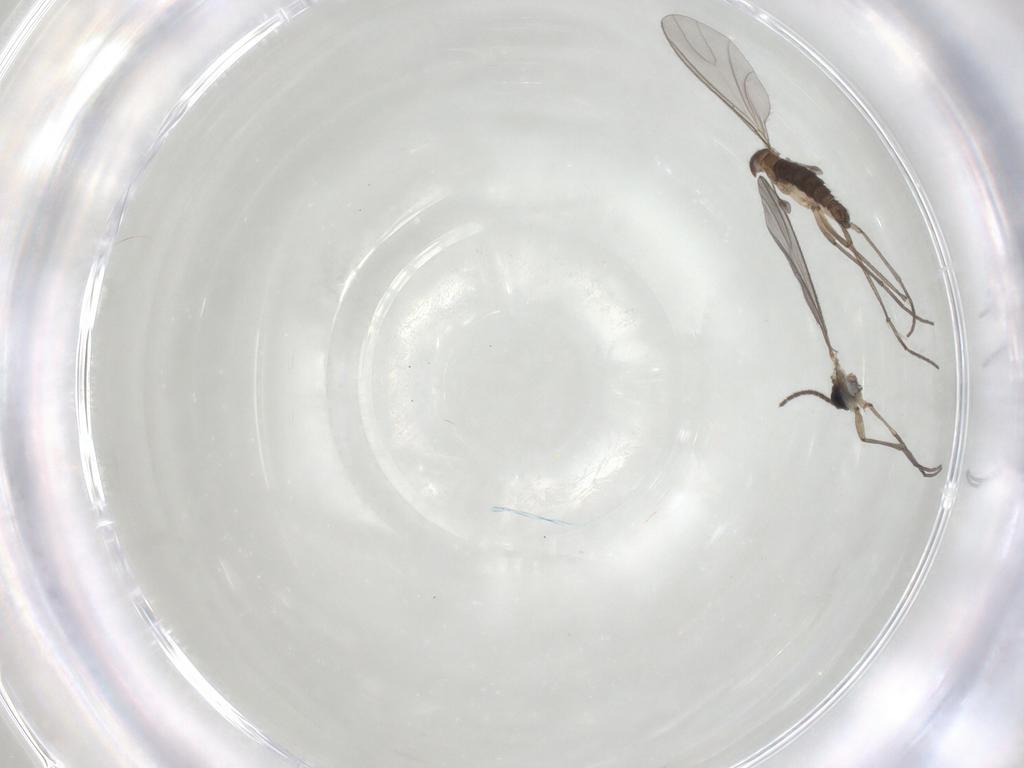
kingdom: Animalia
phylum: Arthropoda
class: Insecta
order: Diptera
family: Sciaridae
